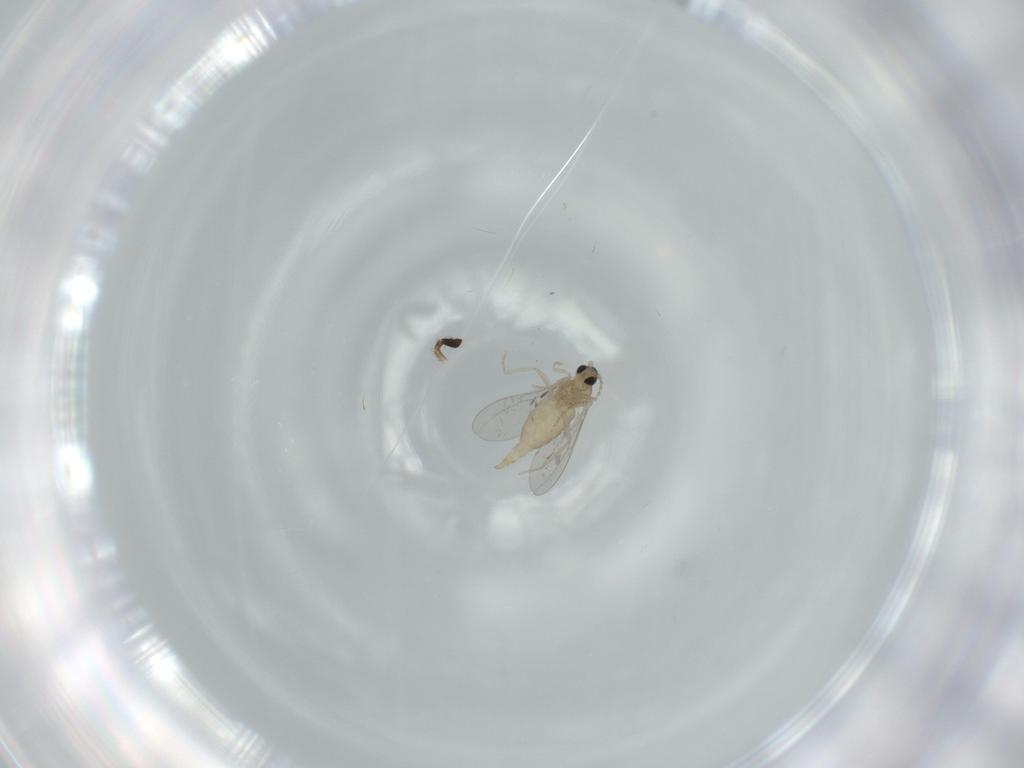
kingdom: Animalia
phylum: Arthropoda
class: Insecta
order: Diptera
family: Cecidomyiidae
